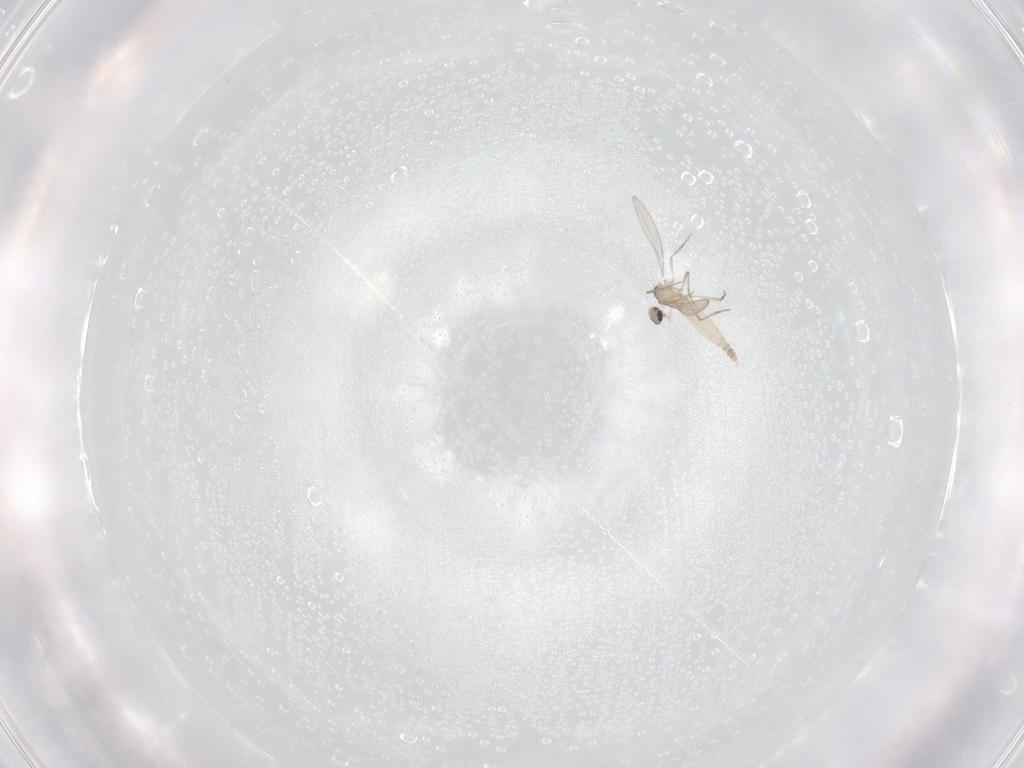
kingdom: Animalia
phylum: Arthropoda
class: Insecta
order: Diptera
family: Cecidomyiidae
